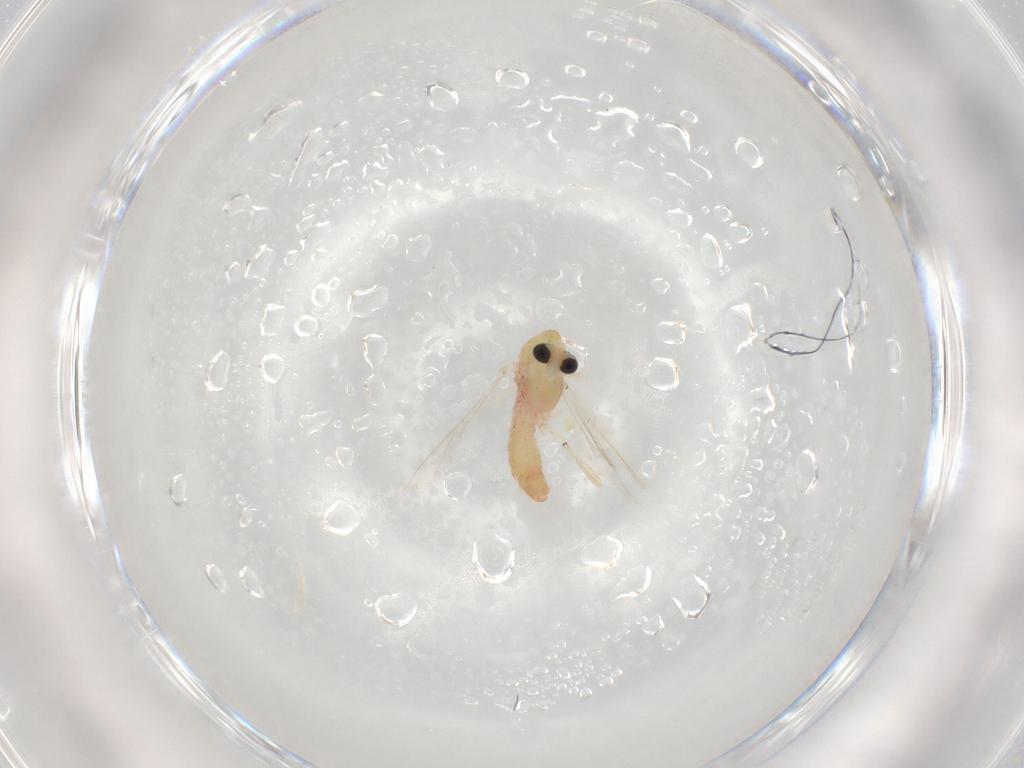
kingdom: Animalia
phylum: Arthropoda
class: Insecta
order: Diptera
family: Chironomidae
